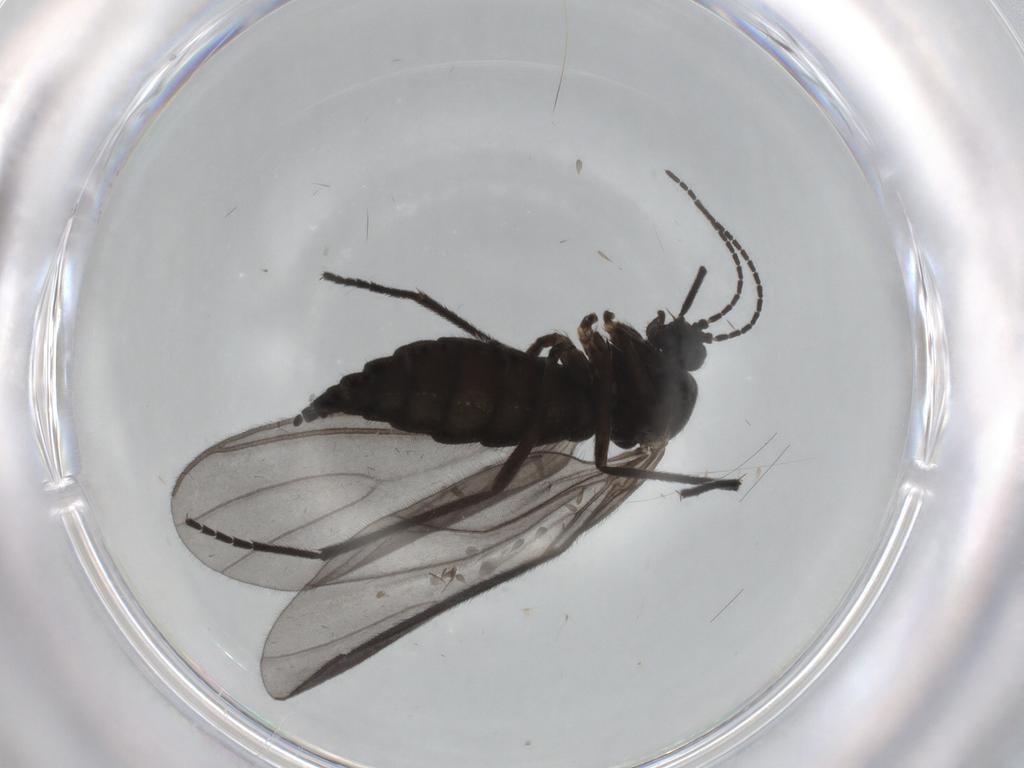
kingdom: Animalia
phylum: Arthropoda
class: Insecta
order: Diptera
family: Sciaridae
